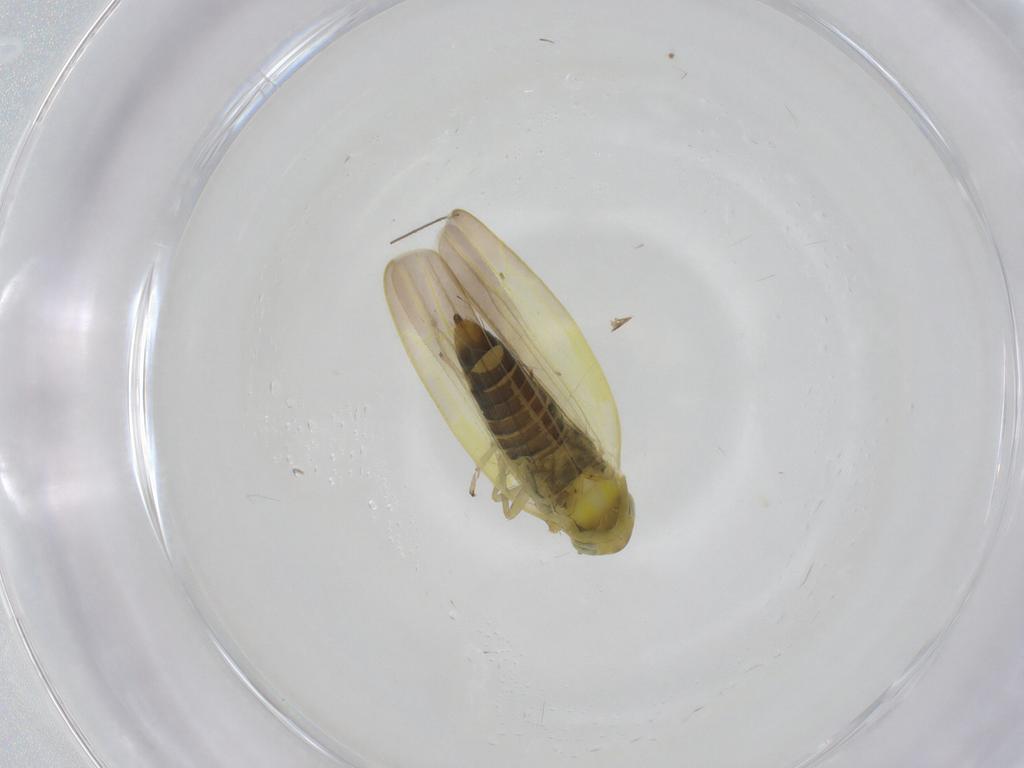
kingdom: Animalia
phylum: Arthropoda
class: Insecta
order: Hemiptera
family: Cicadellidae
